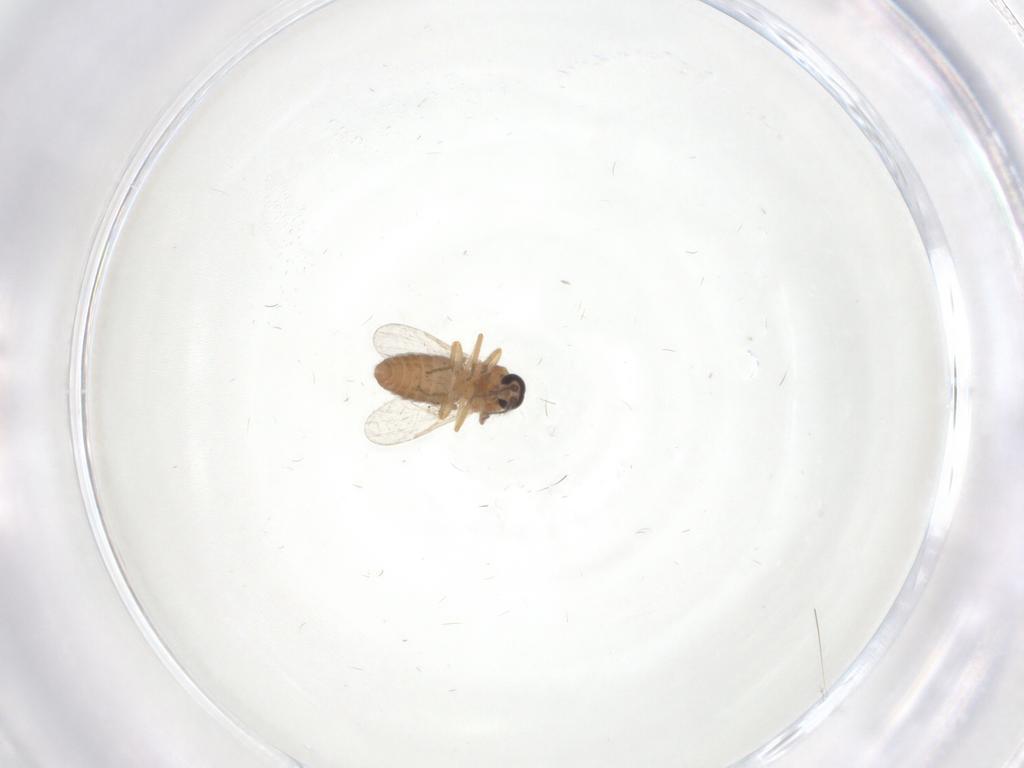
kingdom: Animalia
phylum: Arthropoda
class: Insecta
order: Diptera
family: Ceratopogonidae
